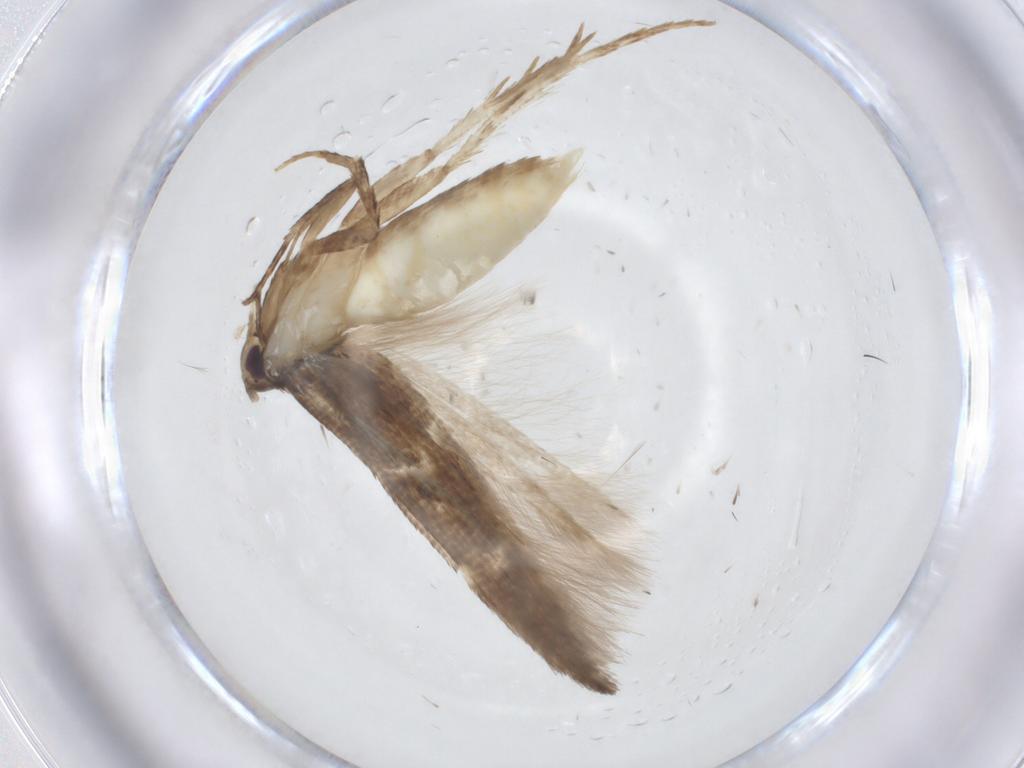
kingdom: Animalia
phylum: Arthropoda
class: Insecta
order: Lepidoptera
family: Cosmopterigidae
